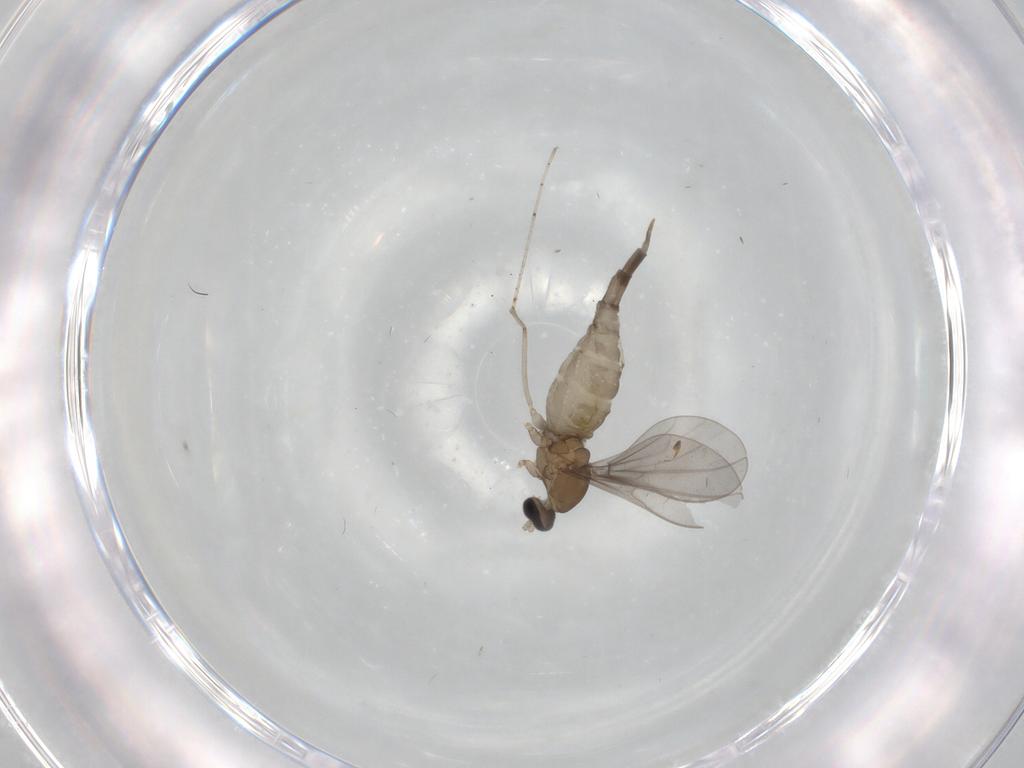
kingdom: Animalia
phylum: Arthropoda
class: Insecta
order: Diptera
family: Cecidomyiidae
